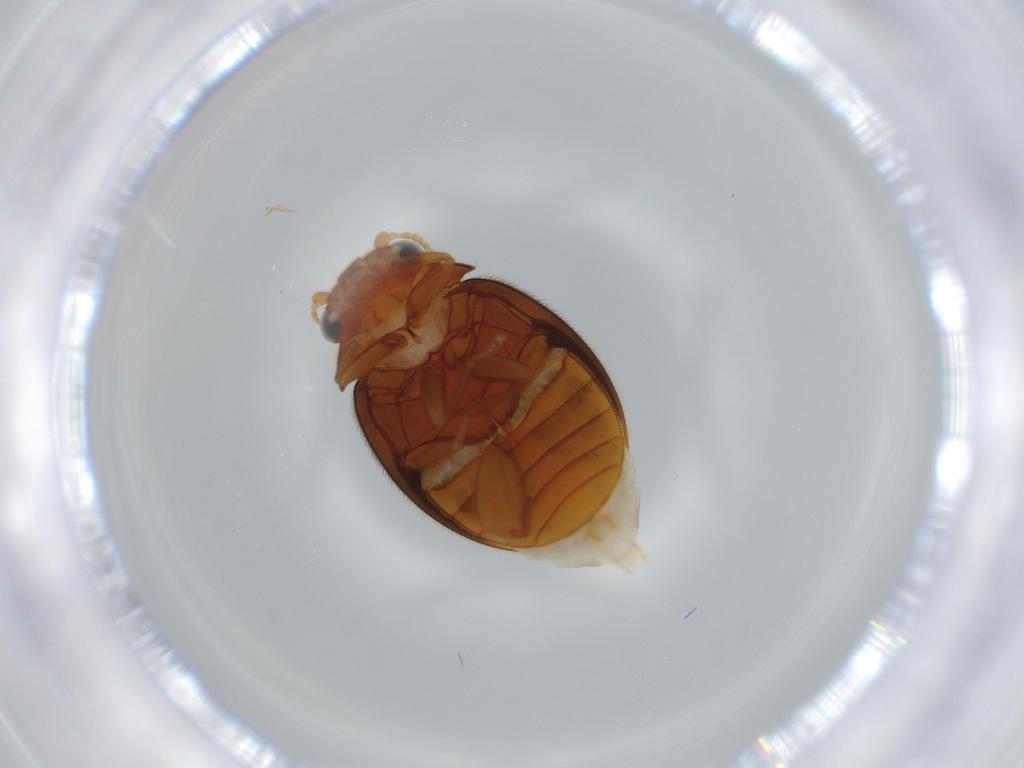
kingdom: Animalia
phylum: Arthropoda
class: Insecta
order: Coleoptera
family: Scirtidae
